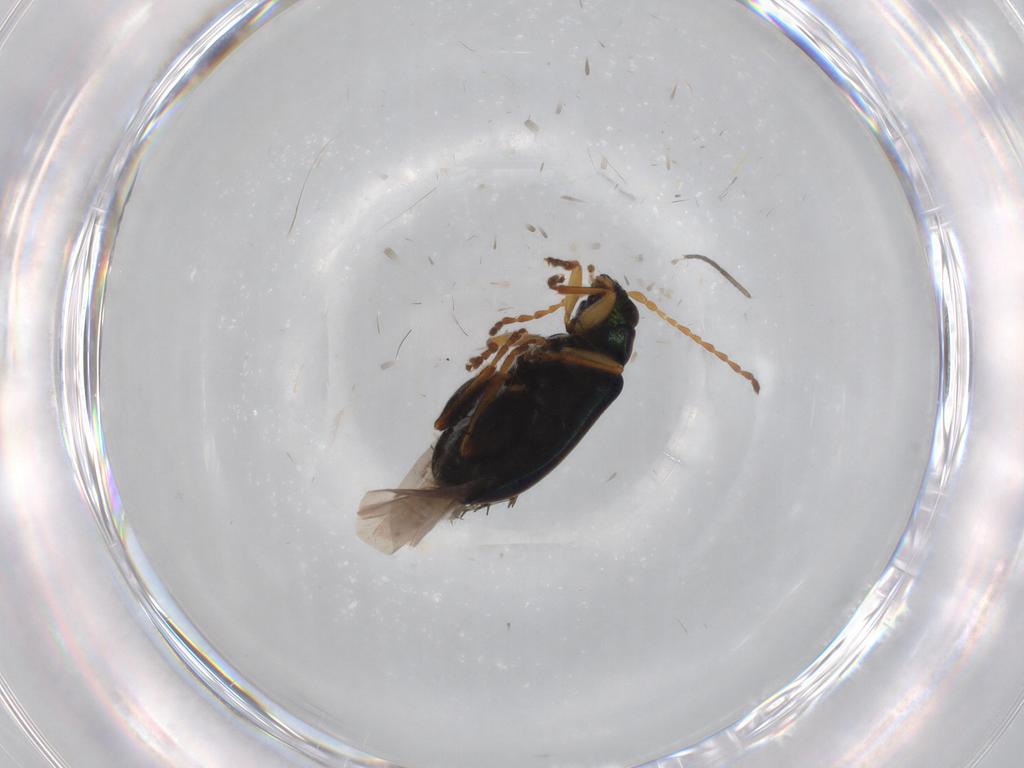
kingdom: Animalia
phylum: Arthropoda
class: Insecta
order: Coleoptera
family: Chrysomelidae
